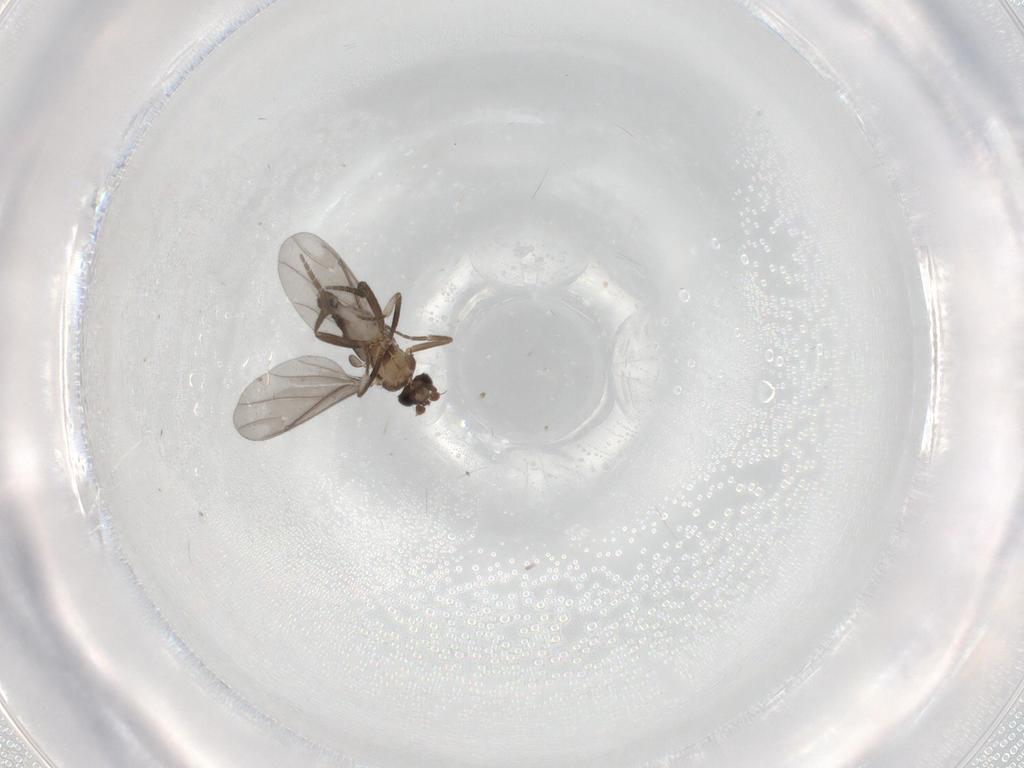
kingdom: Animalia
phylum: Arthropoda
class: Insecta
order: Diptera
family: Phoridae
